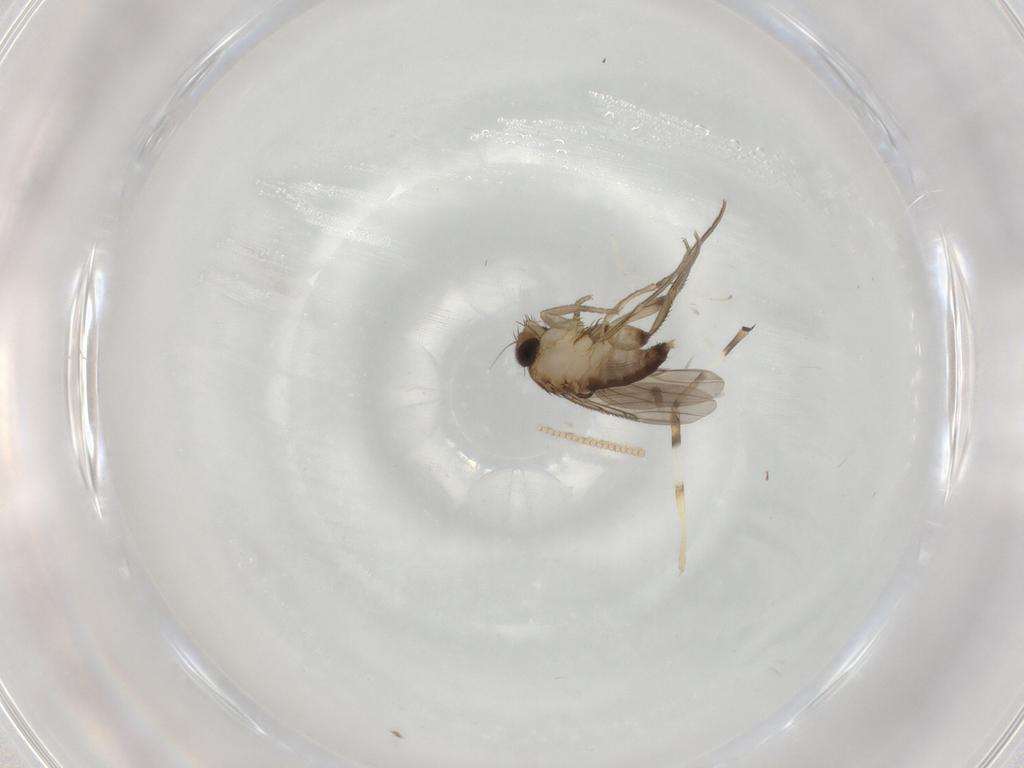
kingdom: Animalia
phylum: Arthropoda
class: Insecta
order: Diptera
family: Phoridae
